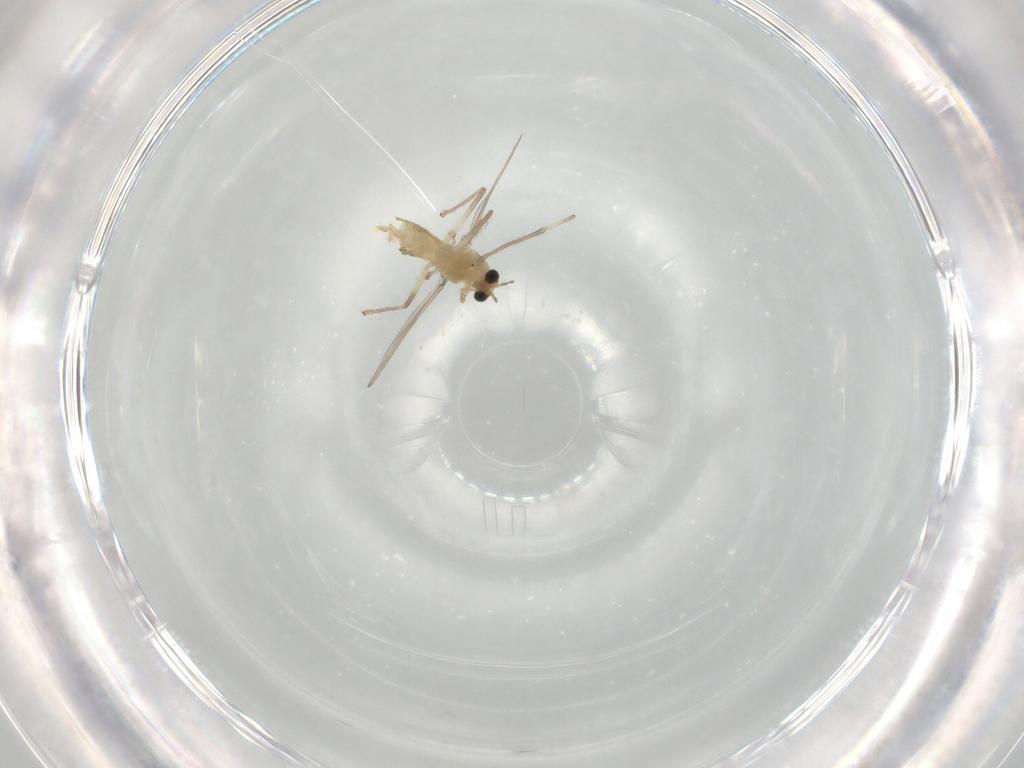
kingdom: Animalia
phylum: Arthropoda
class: Insecta
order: Diptera
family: Chironomidae
